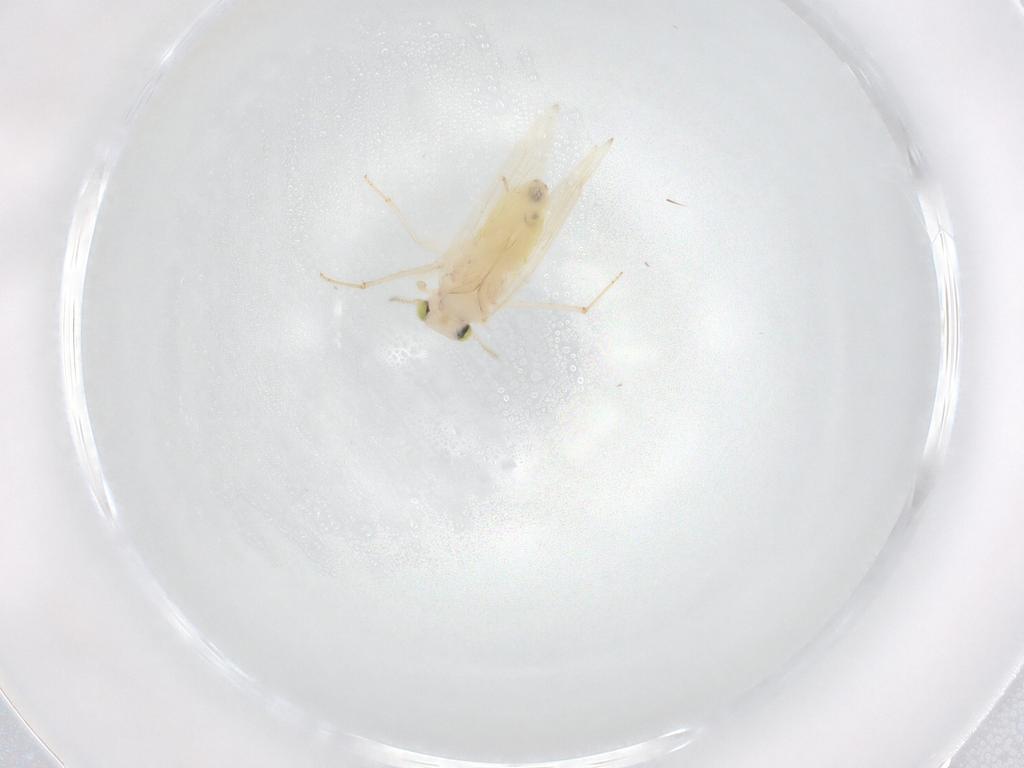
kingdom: Animalia
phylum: Arthropoda
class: Insecta
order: Psocodea
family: Lepidopsocidae
